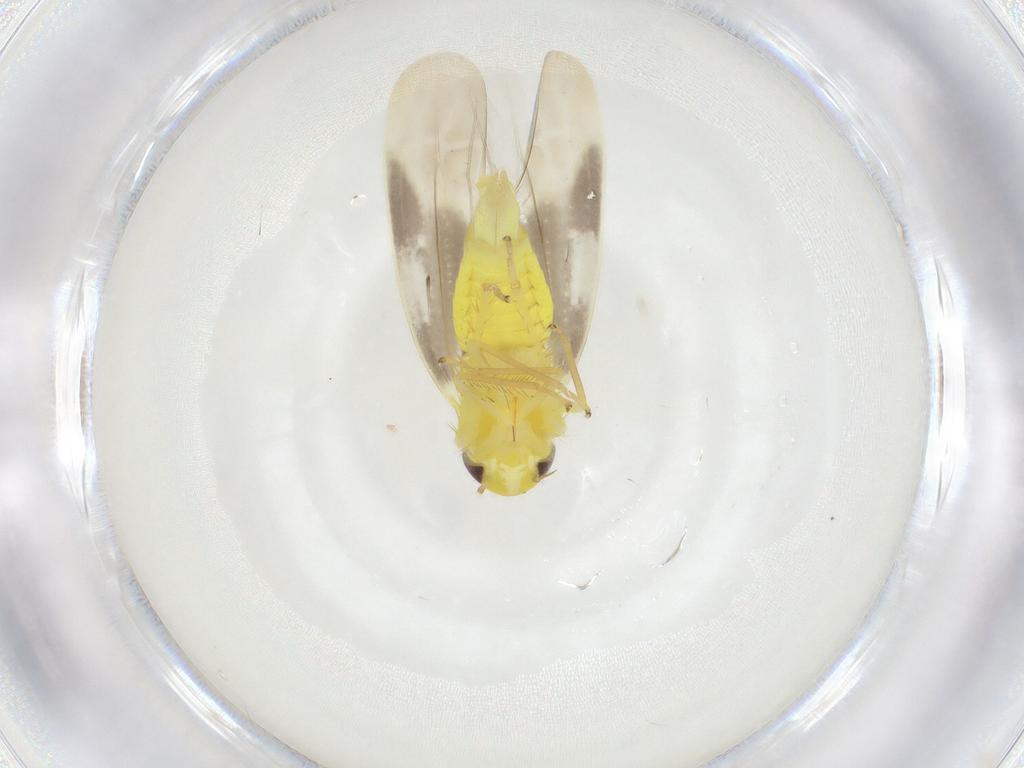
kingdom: Animalia
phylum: Arthropoda
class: Insecta
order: Hemiptera
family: Cicadellidae
